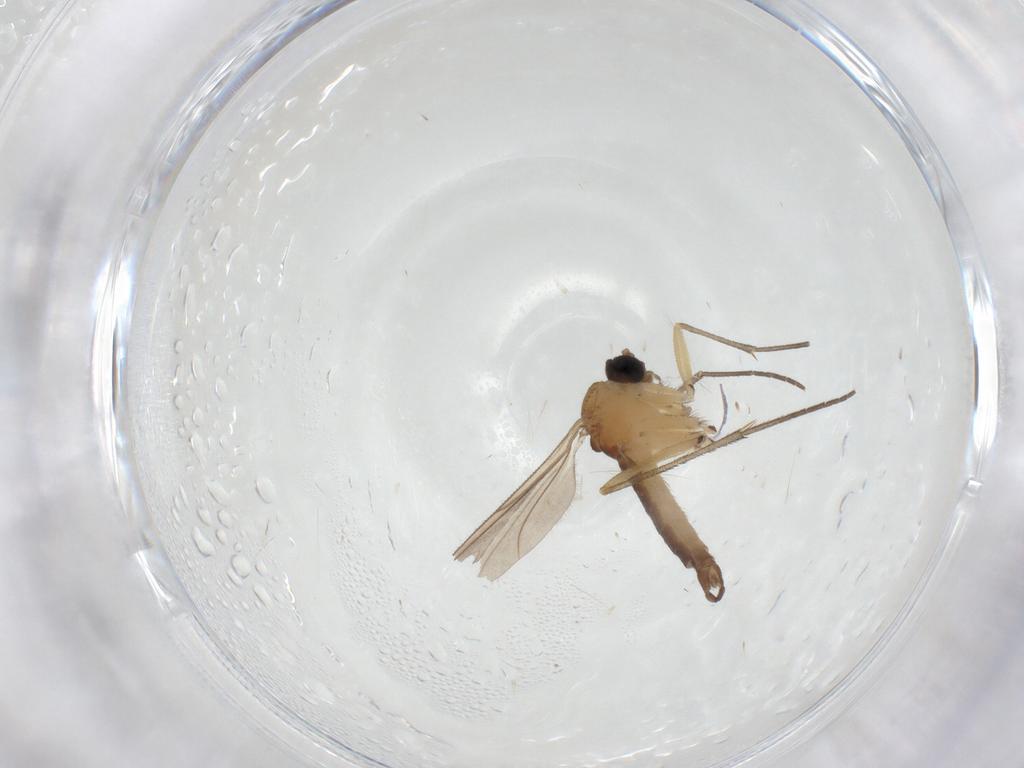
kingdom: Animalia
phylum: Arthropoda
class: Insecta
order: Diptera
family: Sciaridae
